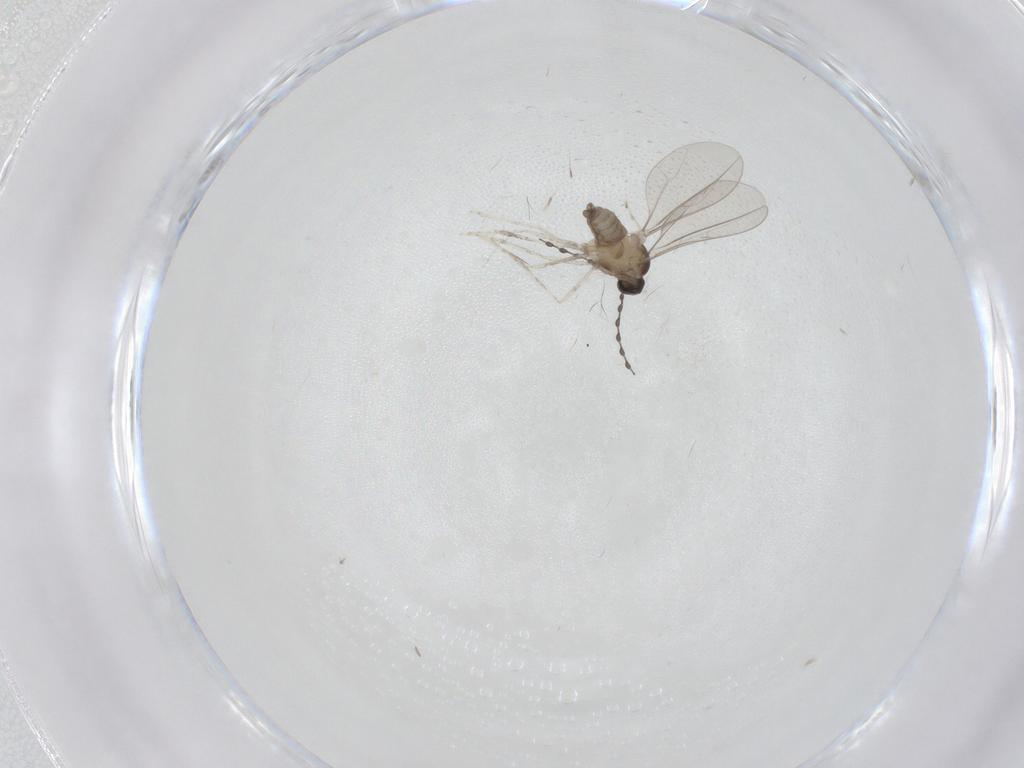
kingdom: Animalia
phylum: Arthropoda
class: Insecta
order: Diptera
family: Cecidomyiidae
